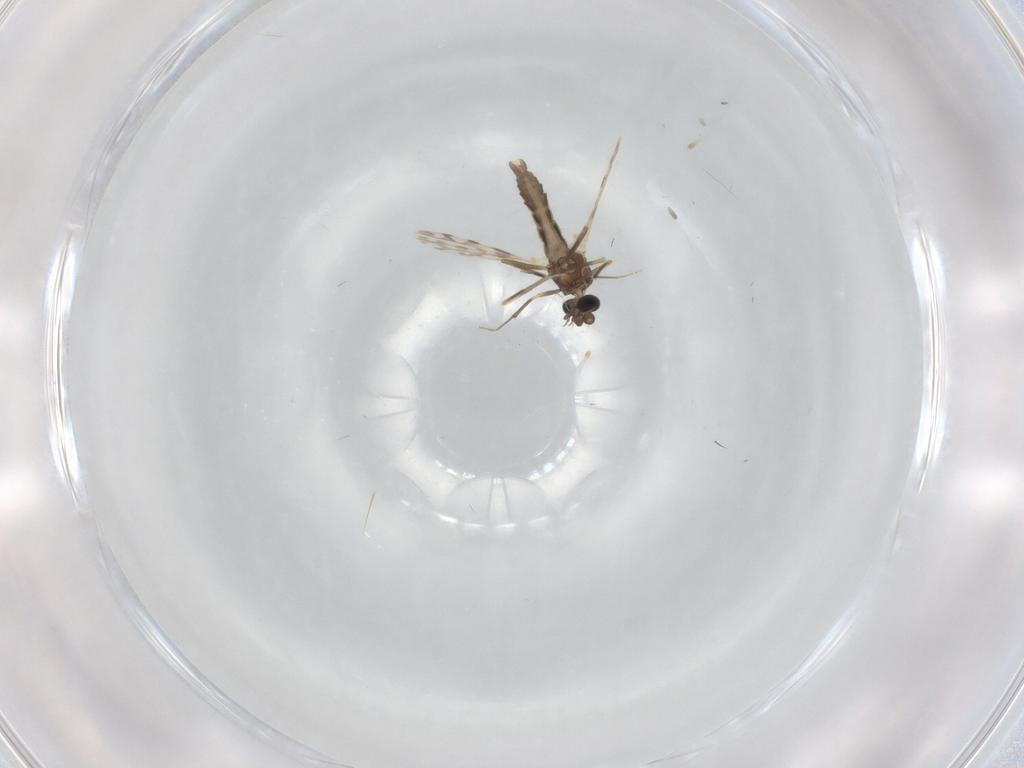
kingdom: Animalia
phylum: Arthropoda
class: Insecta
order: Diptera
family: Ceratopogonidae
